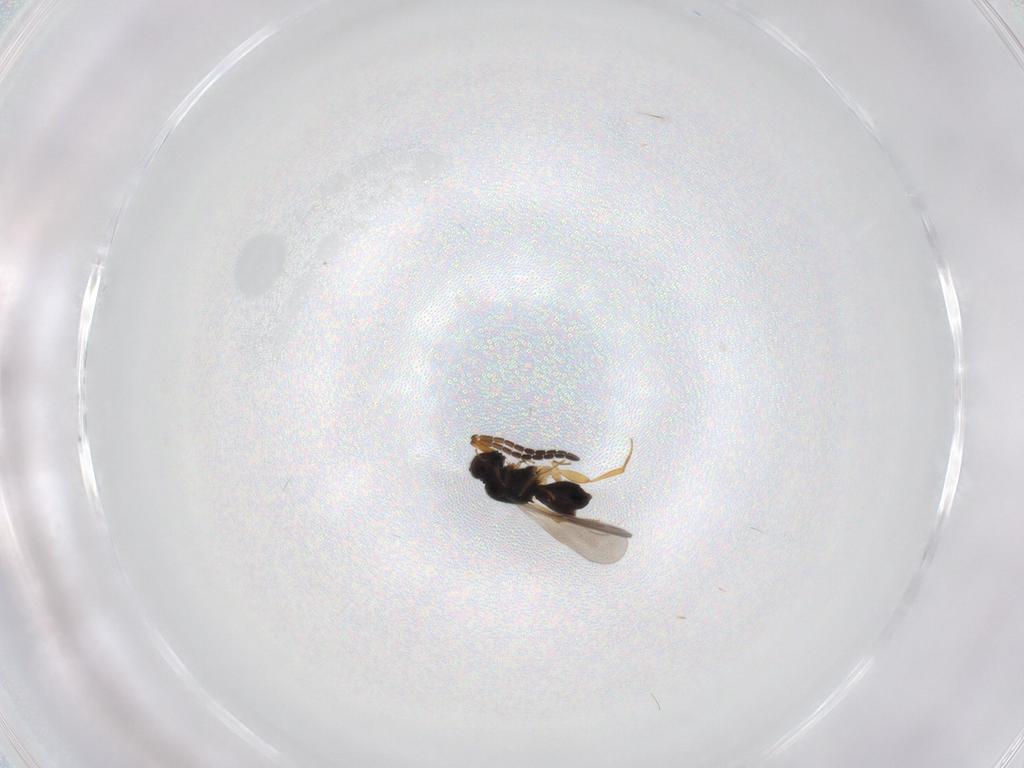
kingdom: Animalia
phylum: Arthropoda
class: Insecta
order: Hymenoptera
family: Ceraphronidae
